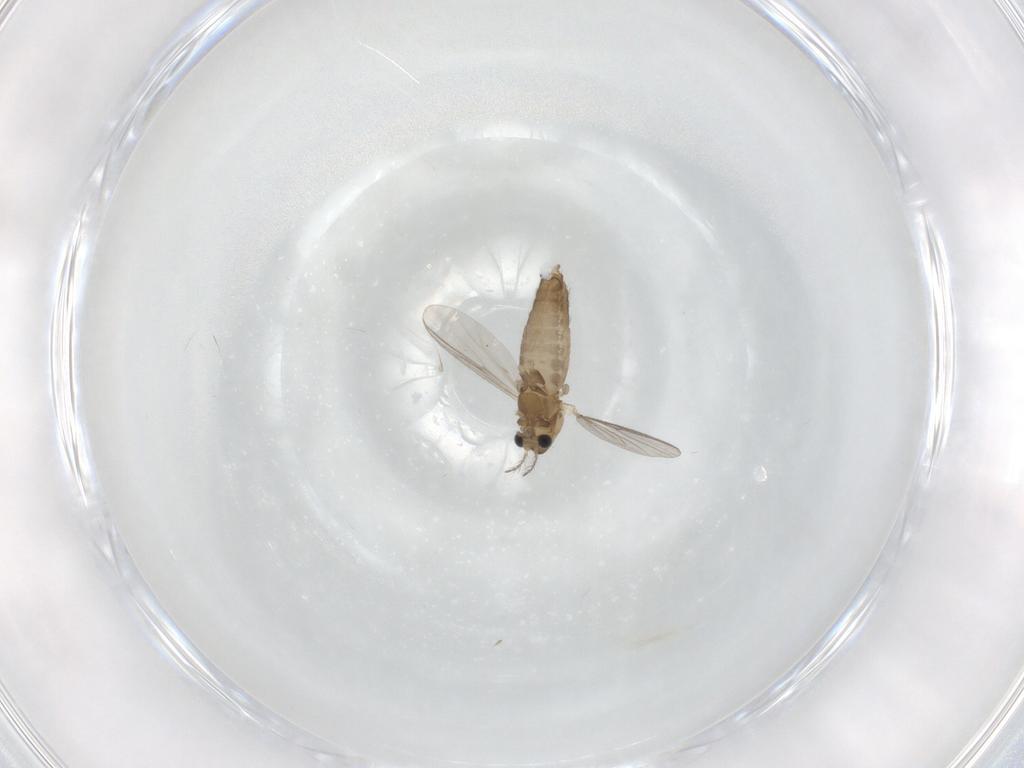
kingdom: Animalia
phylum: Arthropoda
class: Insecta
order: Diptera
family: Chironomidae
